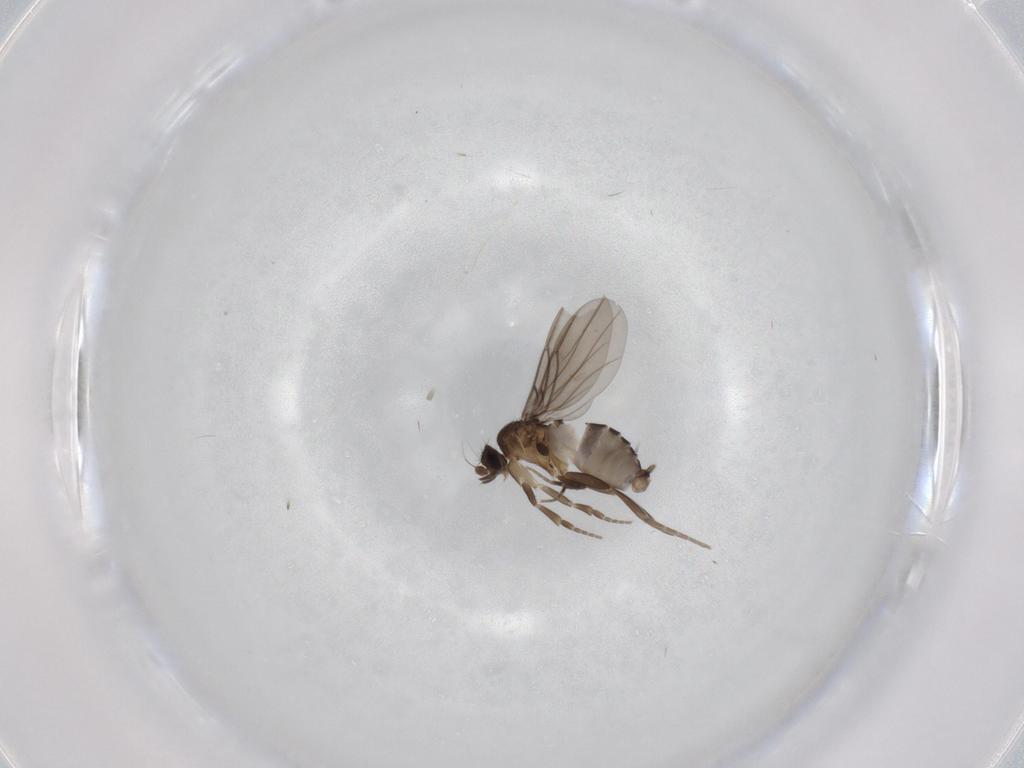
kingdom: Animalia
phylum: Arthropoda
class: Insecta
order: Diptera
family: Phoridae
